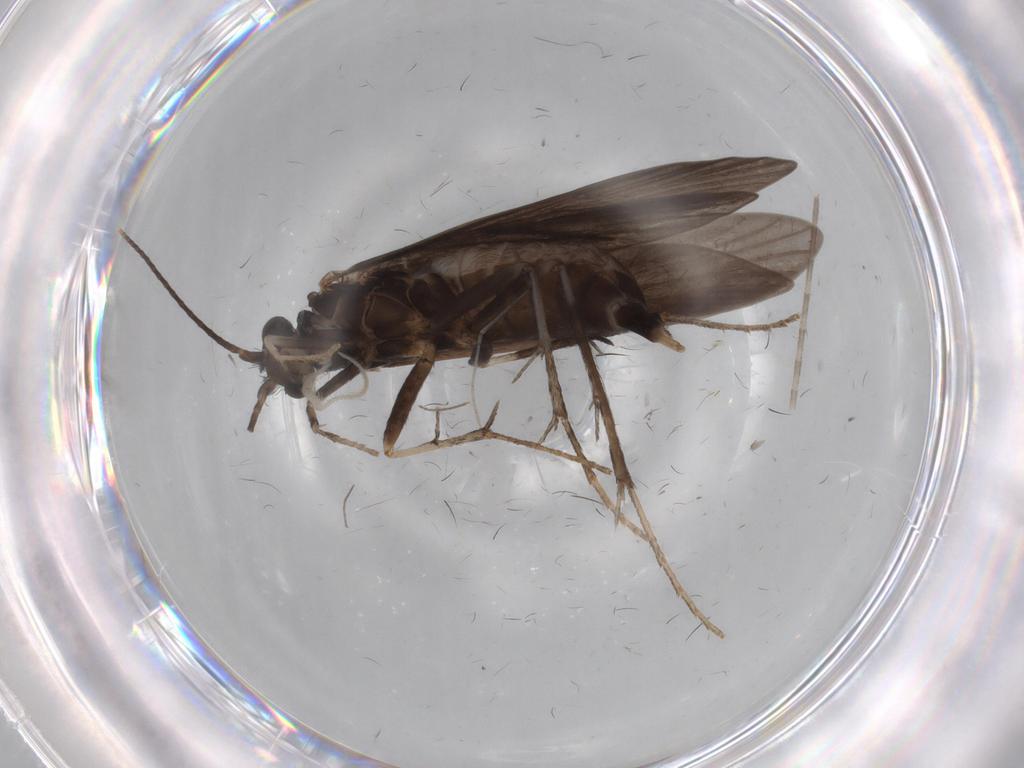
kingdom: Animalia
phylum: Arthropoda
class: Insecta
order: Trichoptera
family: Xiphocentronidae
